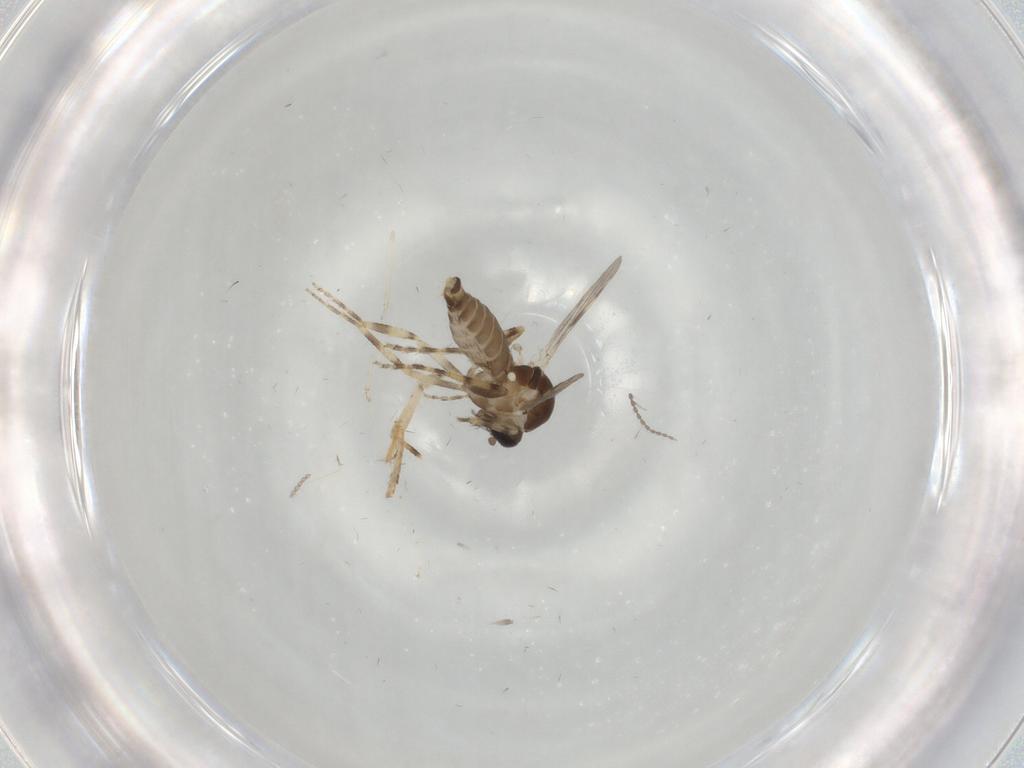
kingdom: Animalia
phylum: Arthropoda
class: Insecta
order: Diptera
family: Ceratopogonidae
